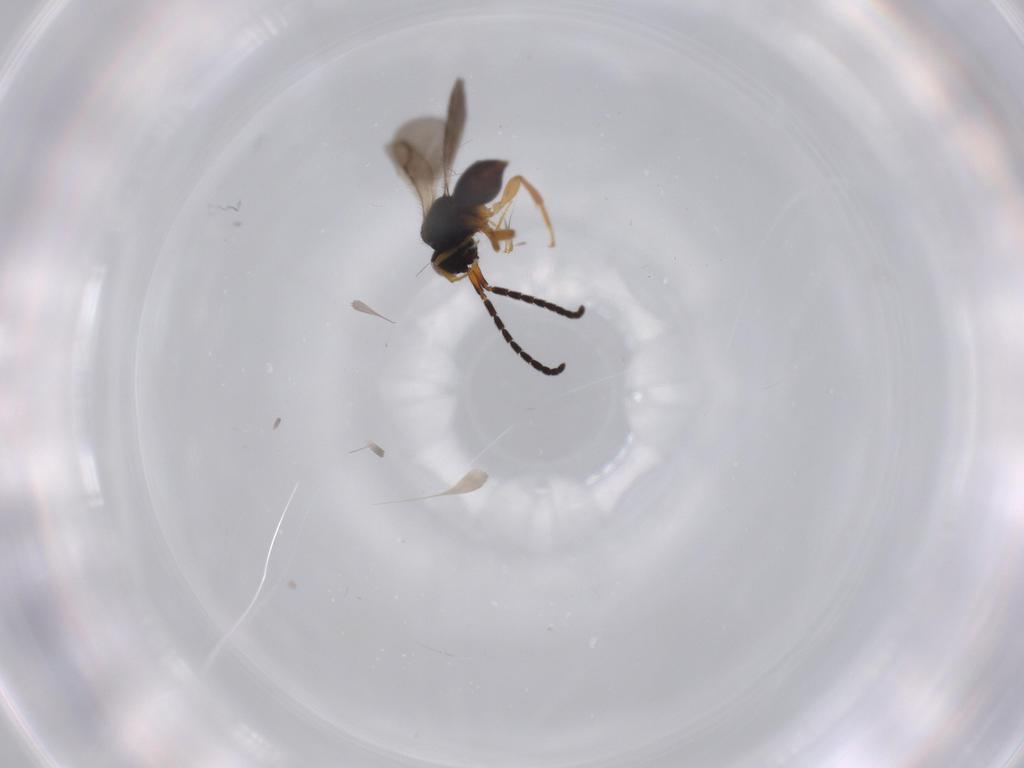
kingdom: Animalia
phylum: Arthropoda
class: Insecta
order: Hymenoptera
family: Ceraphronidae
